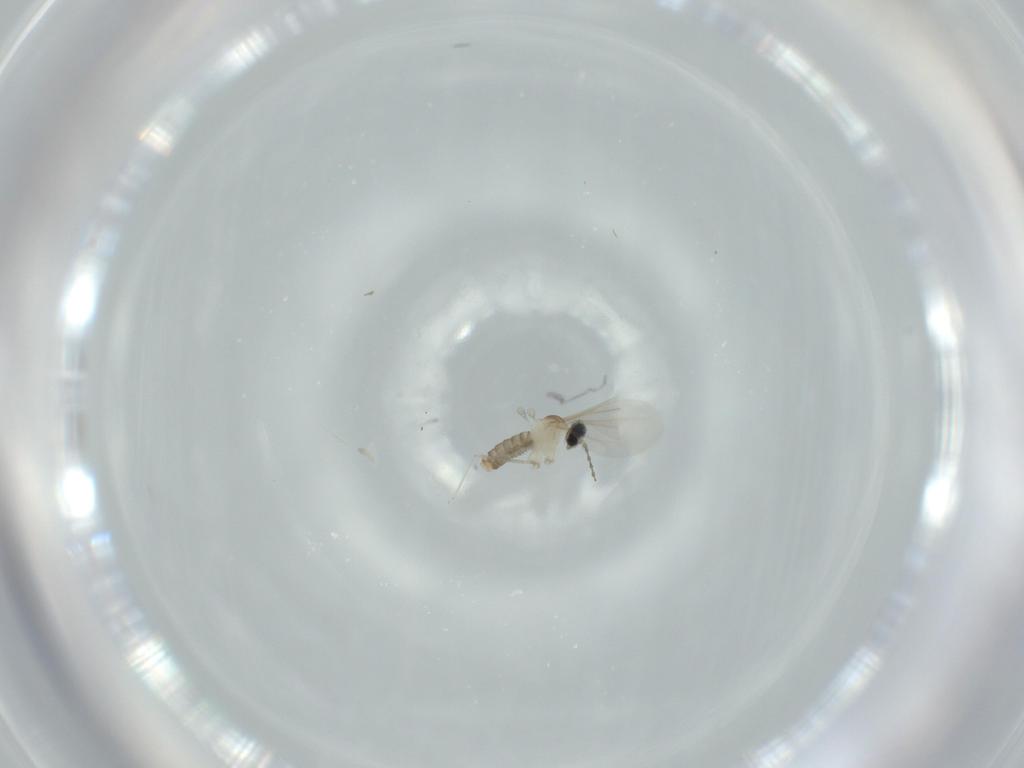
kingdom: Animalia
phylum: Arthropoda
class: Insecta
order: Diptera
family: Cecidomyiidae
